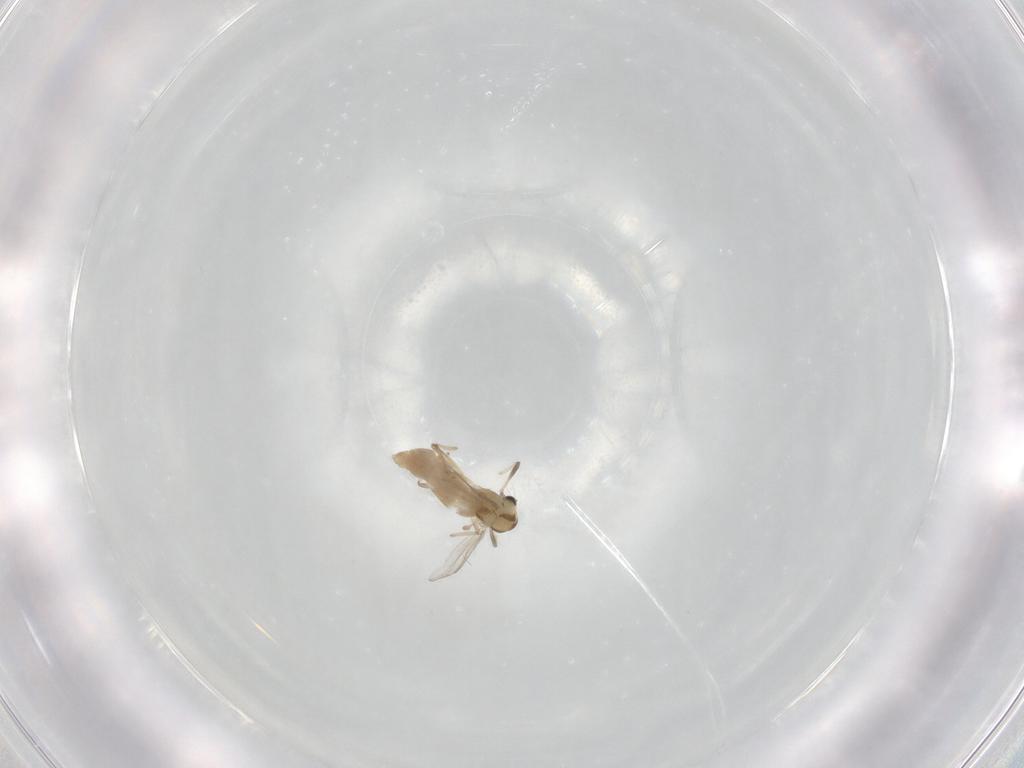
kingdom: Animalia
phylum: Arthropoda
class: Insecta
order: Diptera
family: Chironomidae
